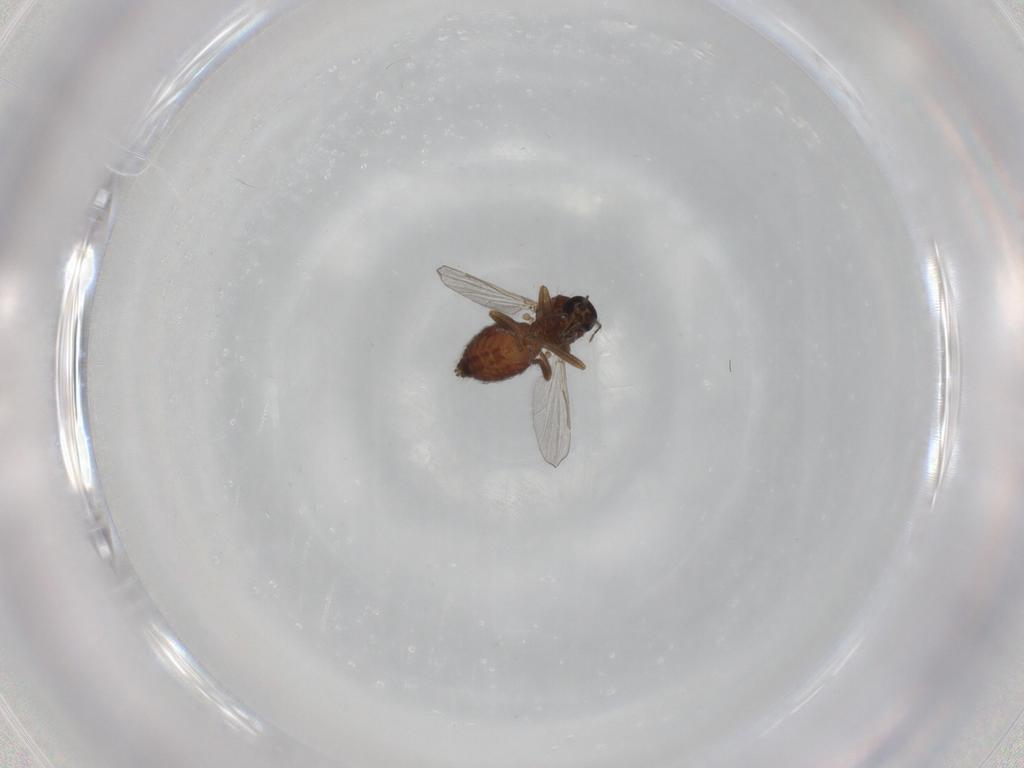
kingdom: Animalia
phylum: Arthropoda
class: Insecta
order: Diptera
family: Ceratopogonidae
